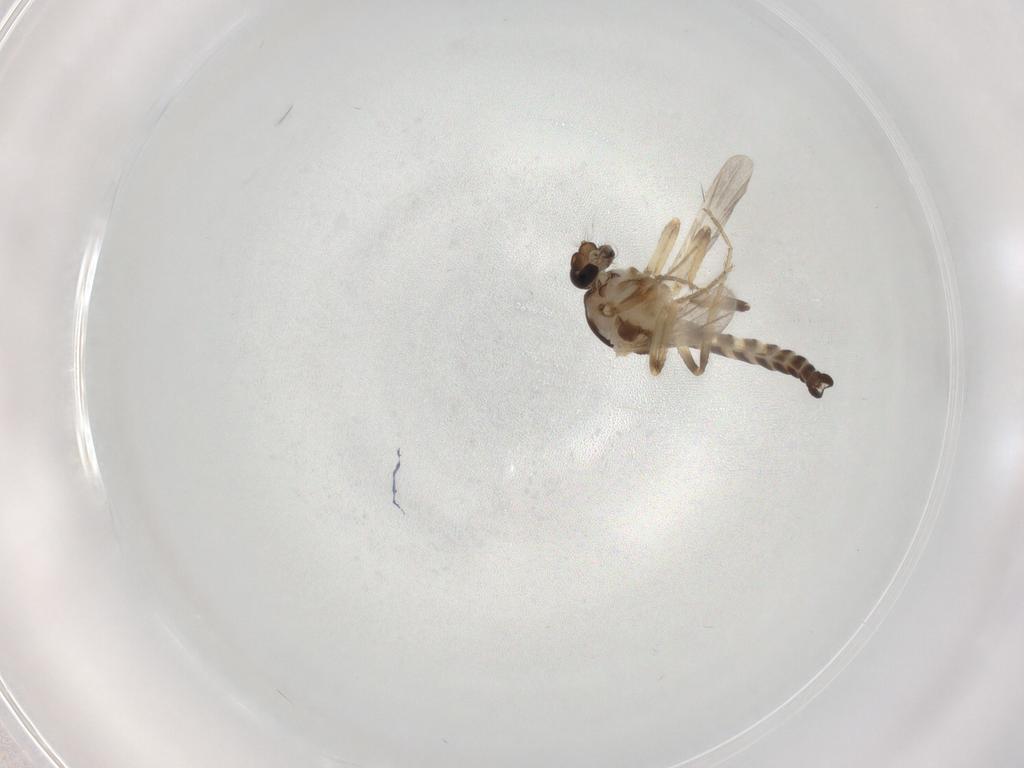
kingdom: Animalia
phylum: Arthropoda
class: Insecta
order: Diptera
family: Ceratopogonidae
